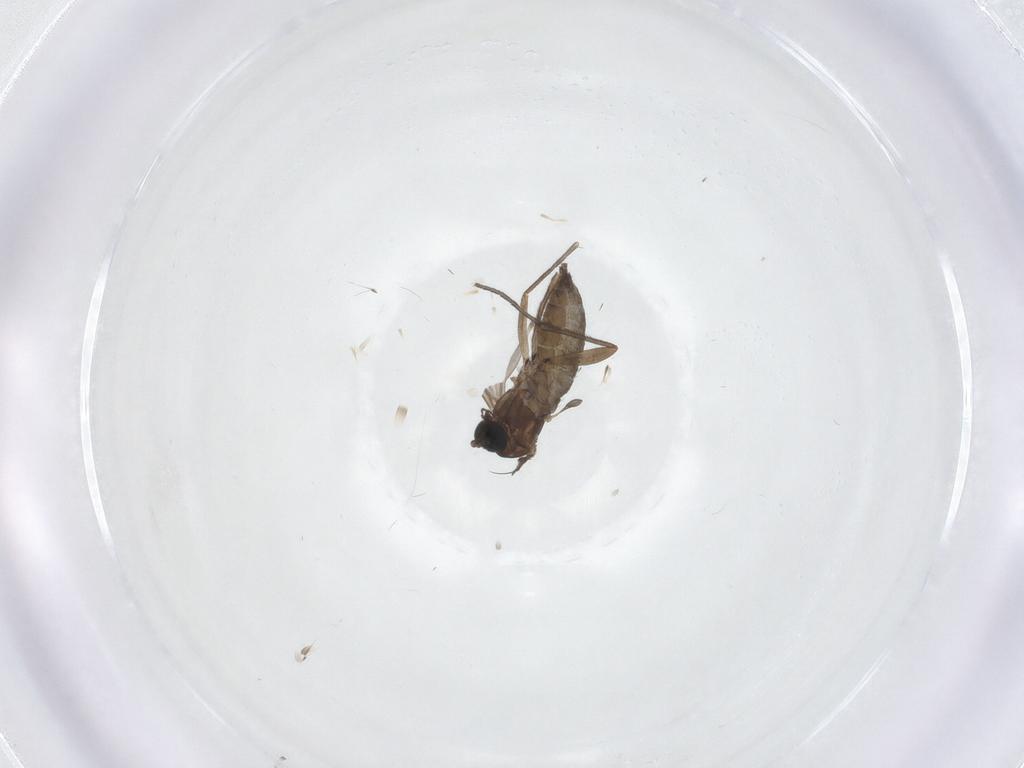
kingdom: Animalia
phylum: Arthropoda
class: Insecta
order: Diptera
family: Sciaridae
